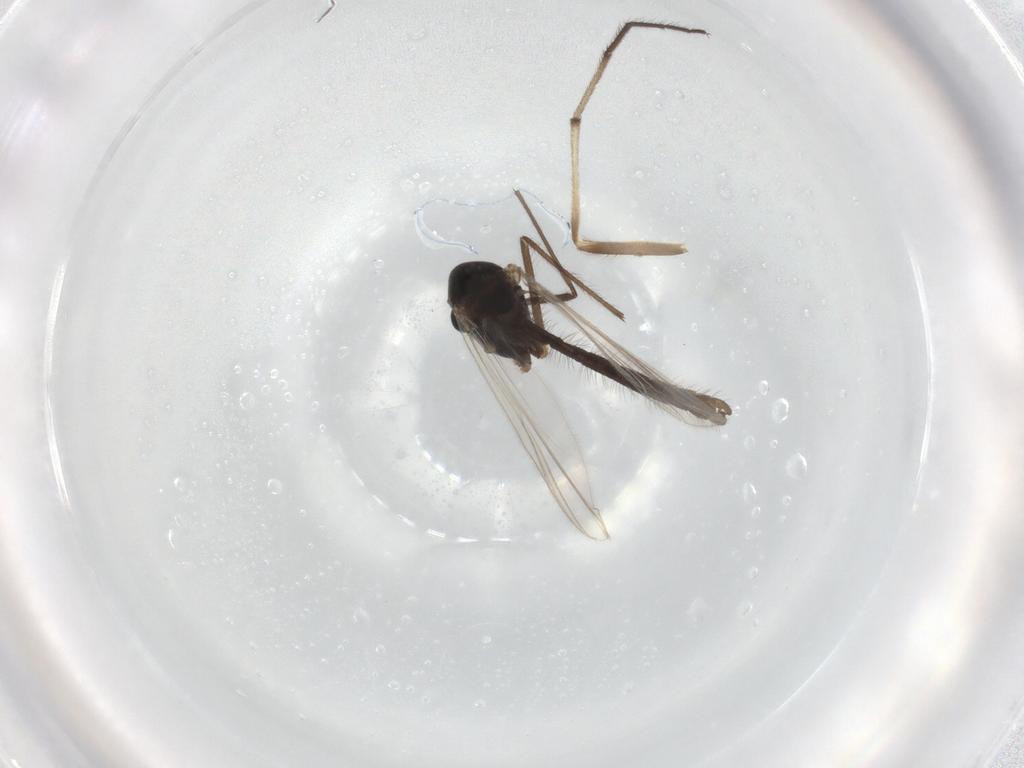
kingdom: Animalia
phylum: Arthropoda
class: Insecta
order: Diptera
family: Chironomidae
